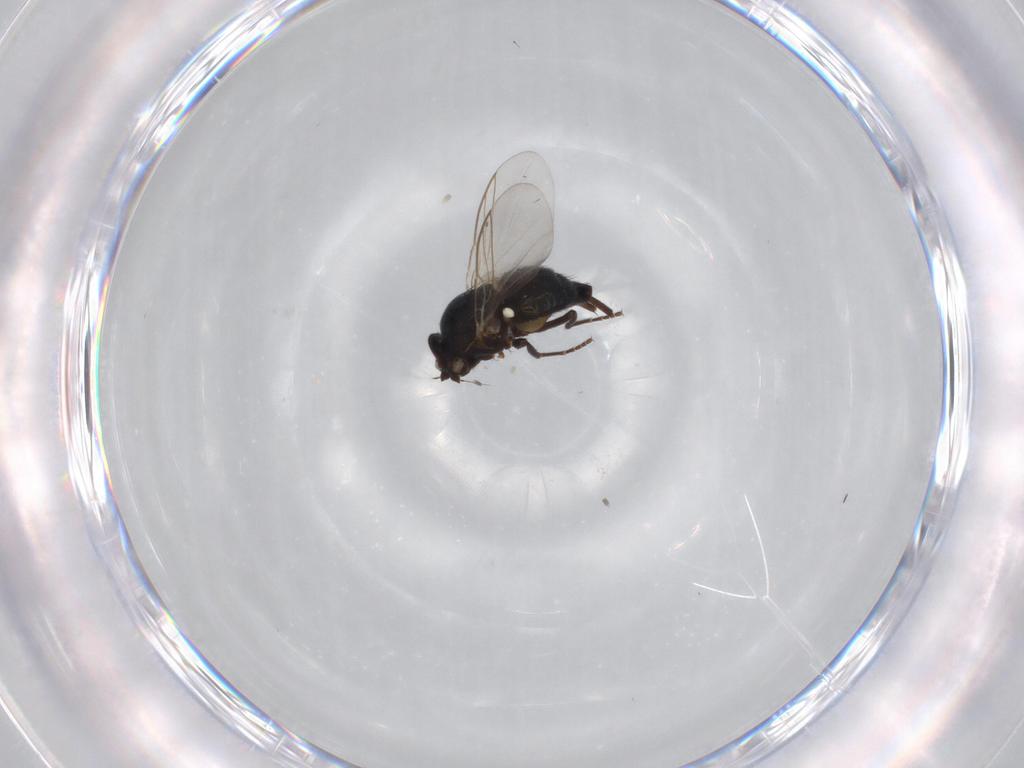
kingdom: Animalia
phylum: Arthropoda
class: Insecta
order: Diptera
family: Agromyzidae
